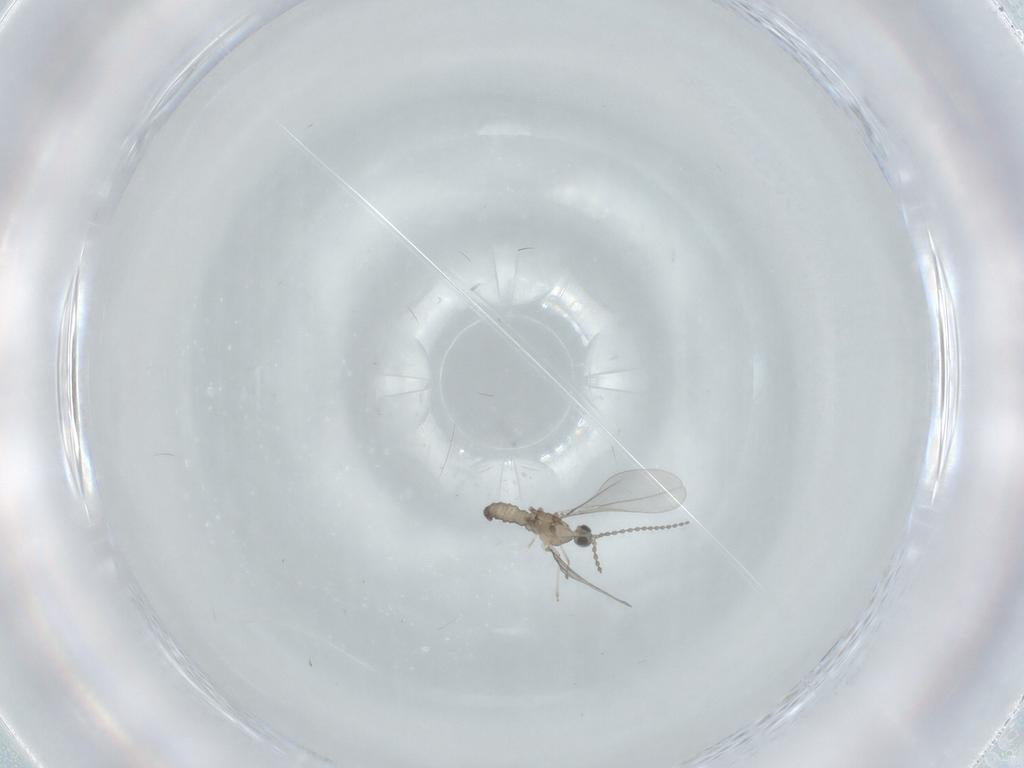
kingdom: Animalia
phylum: Arthropoda
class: Insecta
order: Diptera
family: Cecidomyiidae
